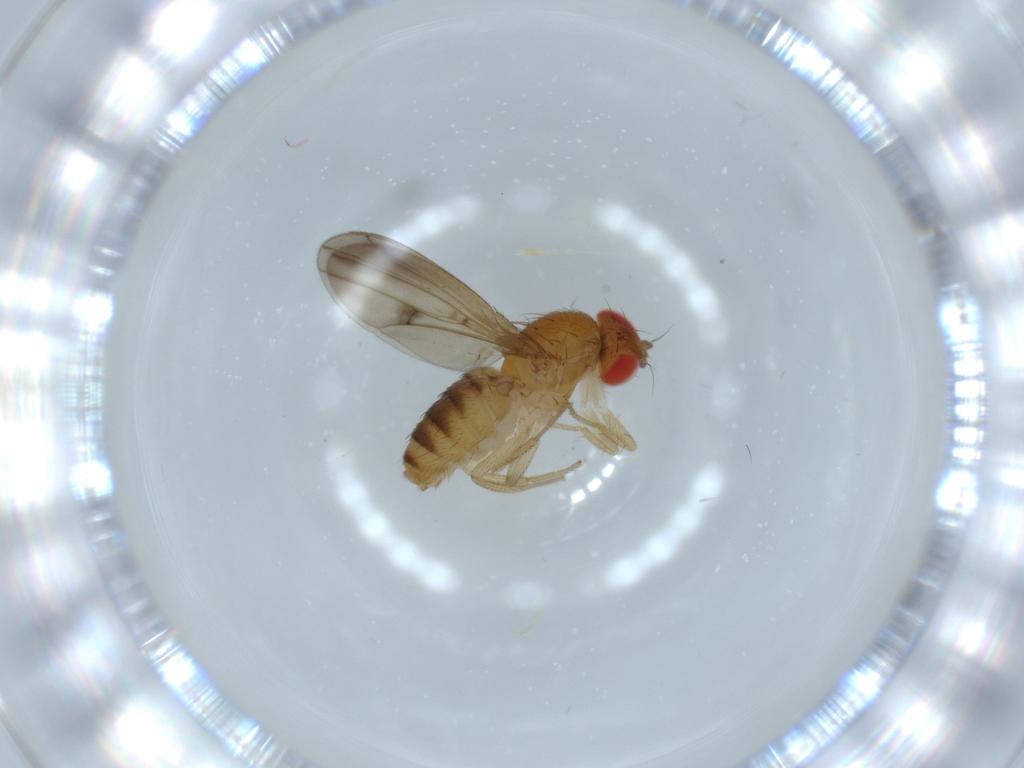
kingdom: Animalia
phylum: Arthropoda
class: Insecta
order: Diptera
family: Drosophilidae
